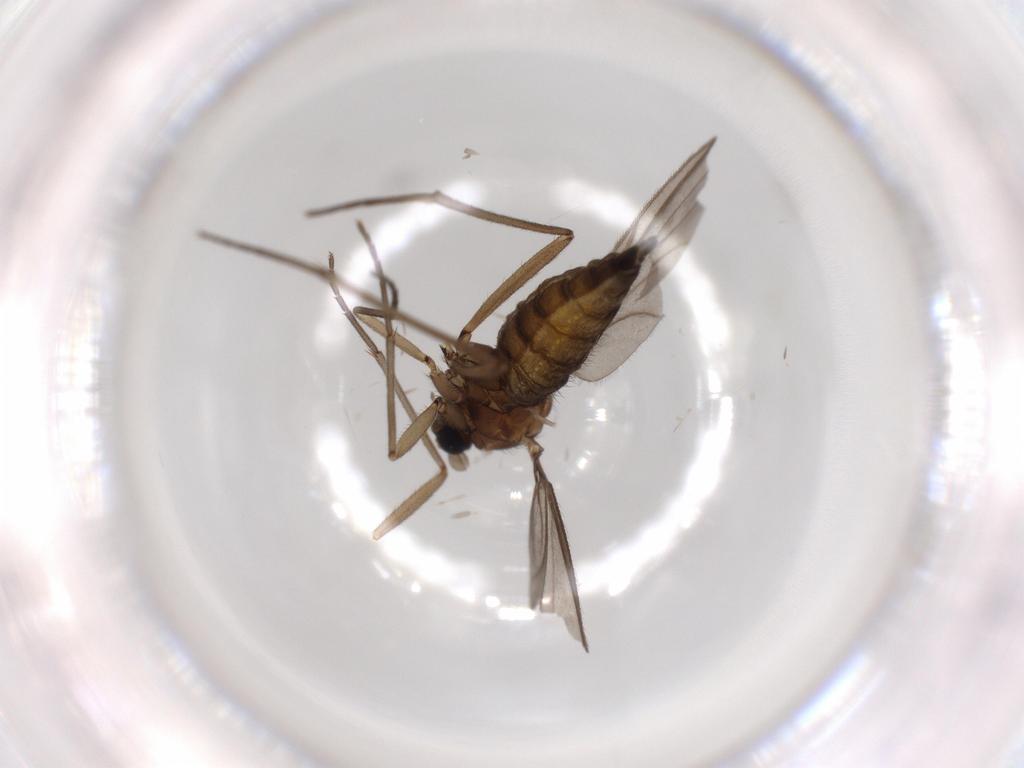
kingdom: Animalia
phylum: Arthropoda
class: Insecta
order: Diptera
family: Sciaridae
